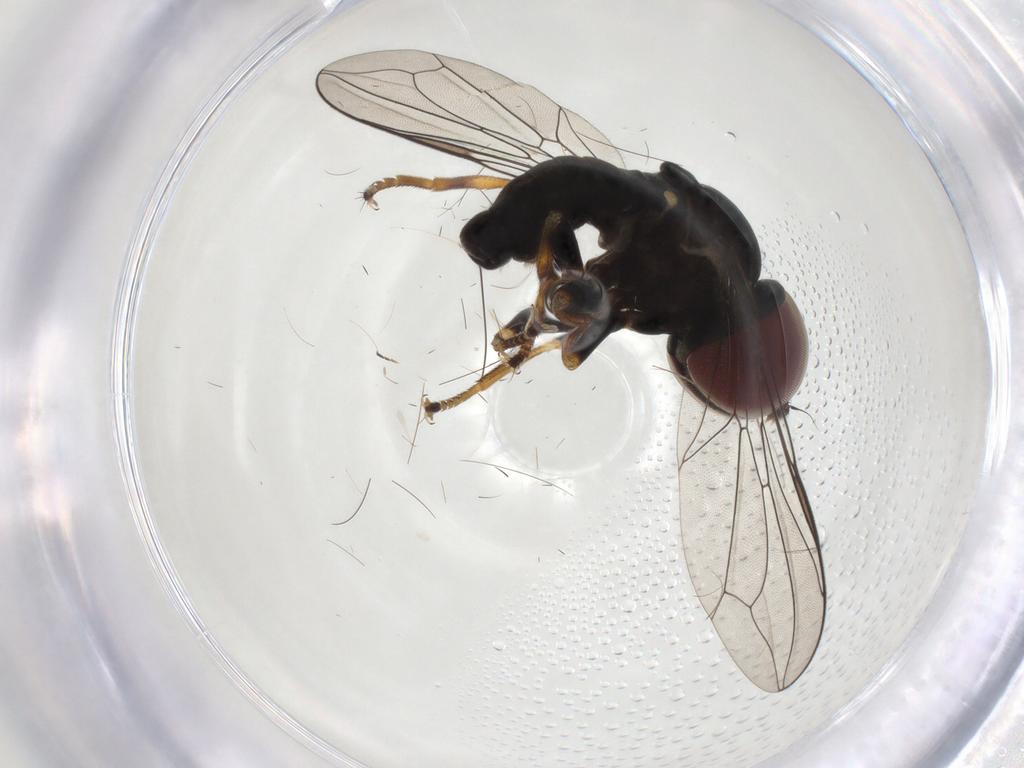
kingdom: Animalia
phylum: Arthropoda
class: Insecta
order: Diptera
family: Pipunculidae
